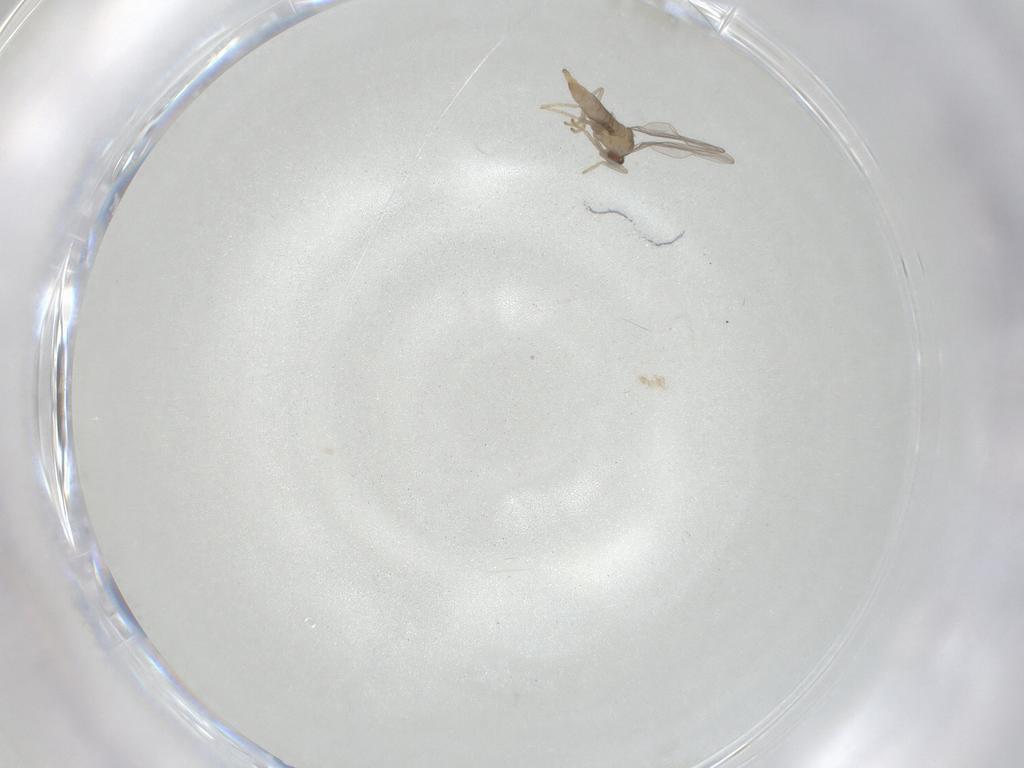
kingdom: Animalia
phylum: Arthropoda
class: Insecta
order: Diptera
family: Cecidomyiidae
